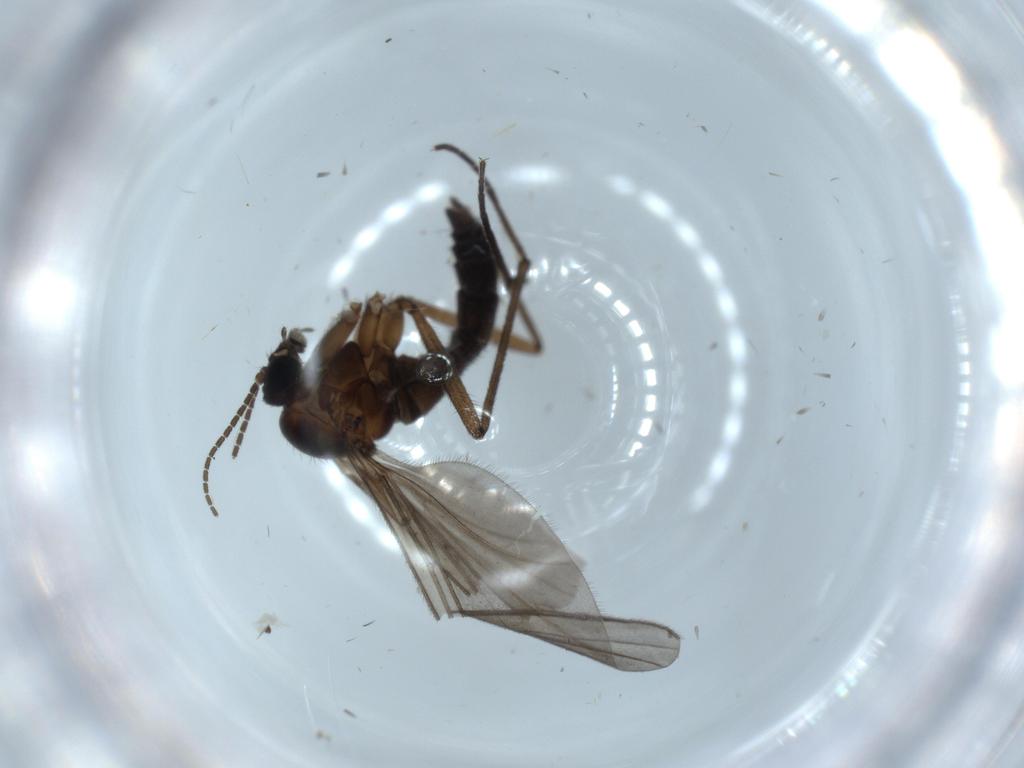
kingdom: Animalia
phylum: Arthropoda
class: Insecta
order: Diptera
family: Sciaridae
